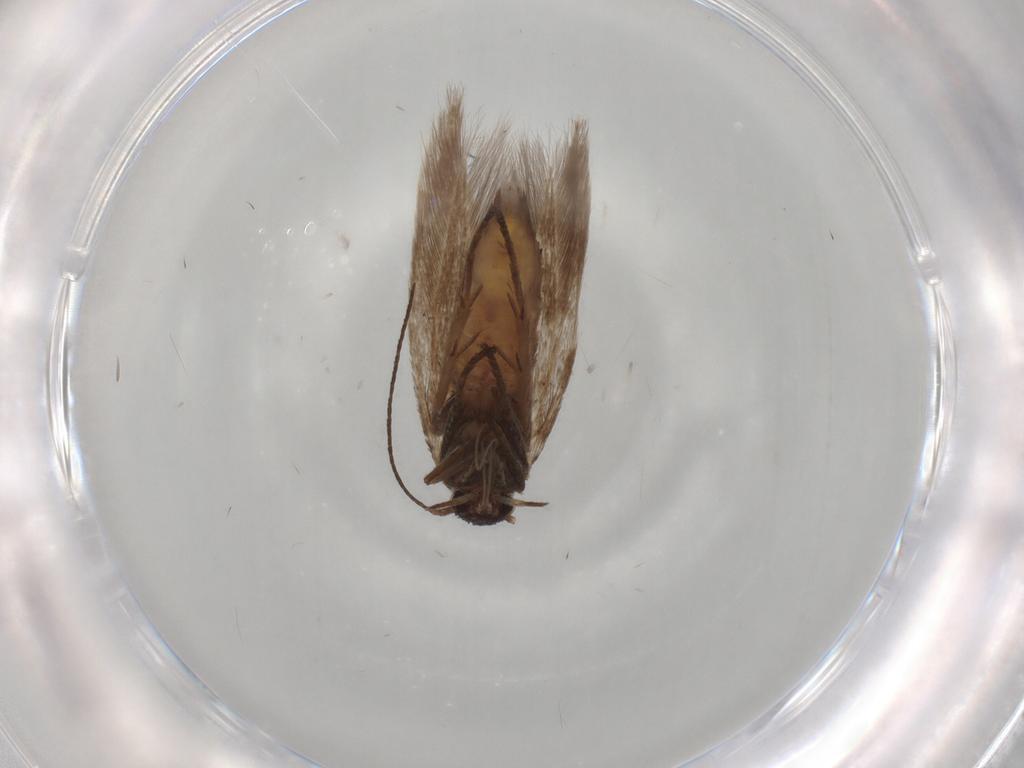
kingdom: Animalia
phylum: Arthropoda
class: Insecta
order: Lepidoptera
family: Scythrididae
